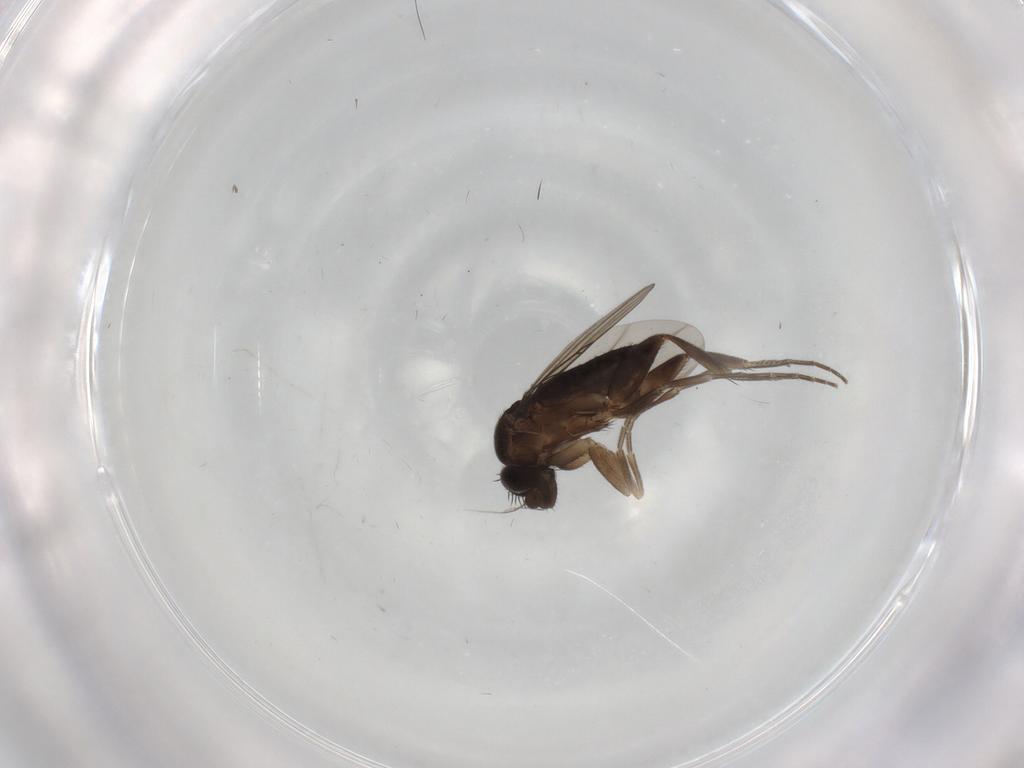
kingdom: Animalia
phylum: Arthropoda
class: Insecta
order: Diptera
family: Phoridae
